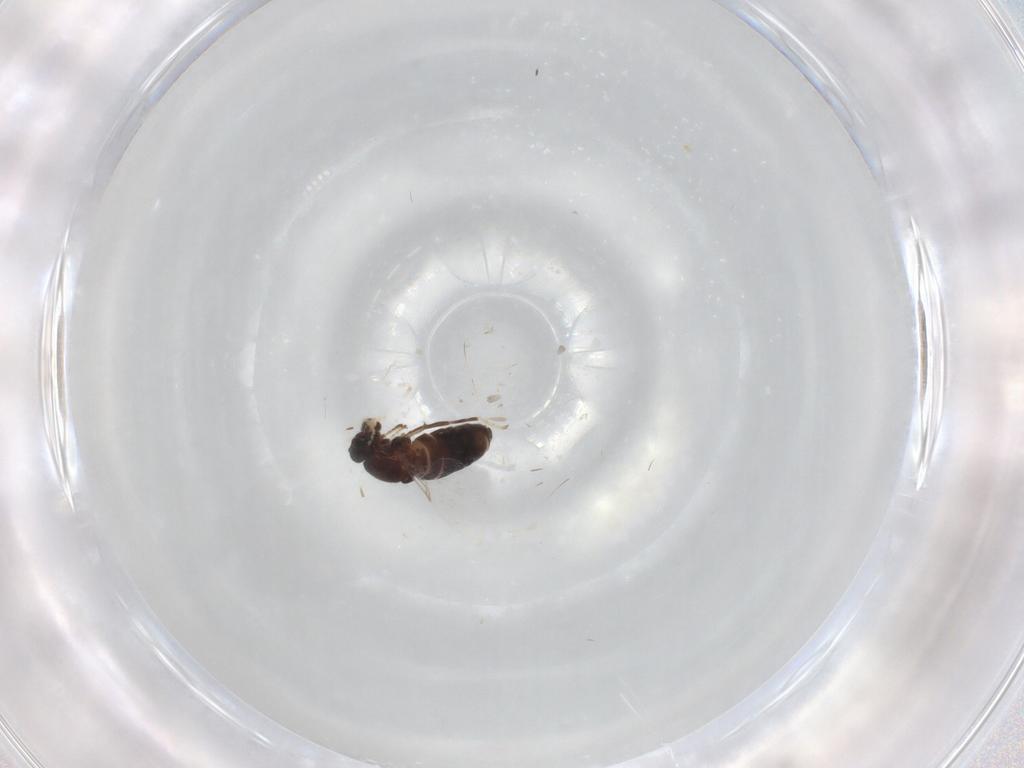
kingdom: Animalia
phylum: Arthropoda
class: Insecta
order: Diptera
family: Scatopsidae
